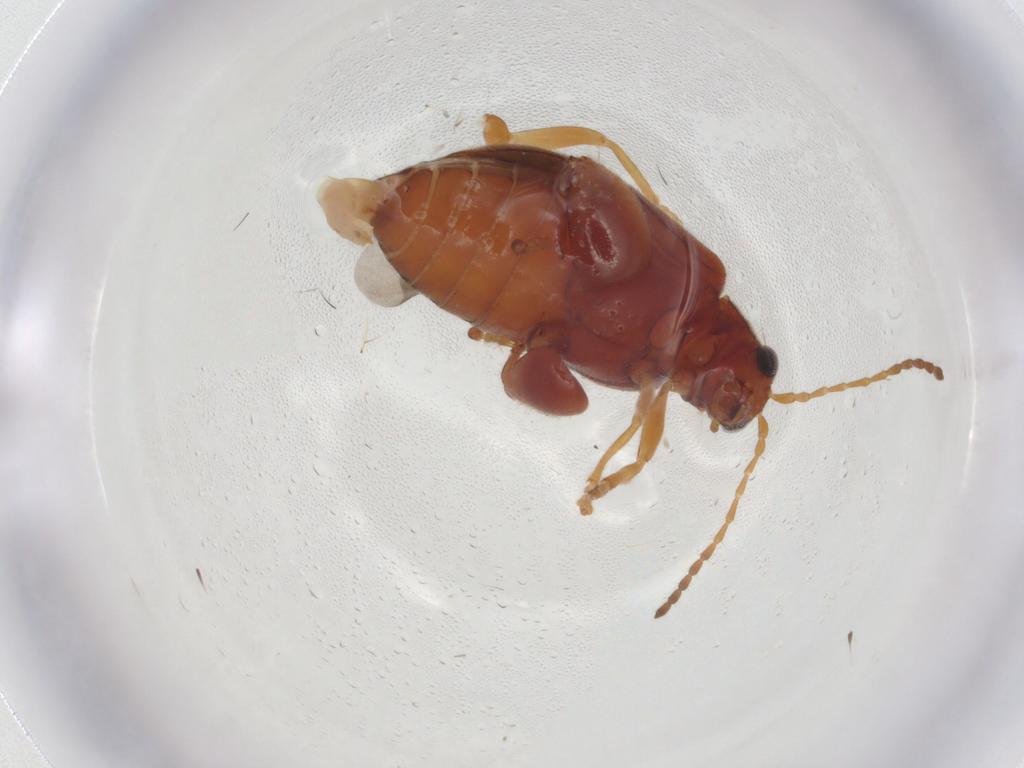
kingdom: Animalia
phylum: Arthropoda
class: Insecta
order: Coleoptera
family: Chrysomelidae
